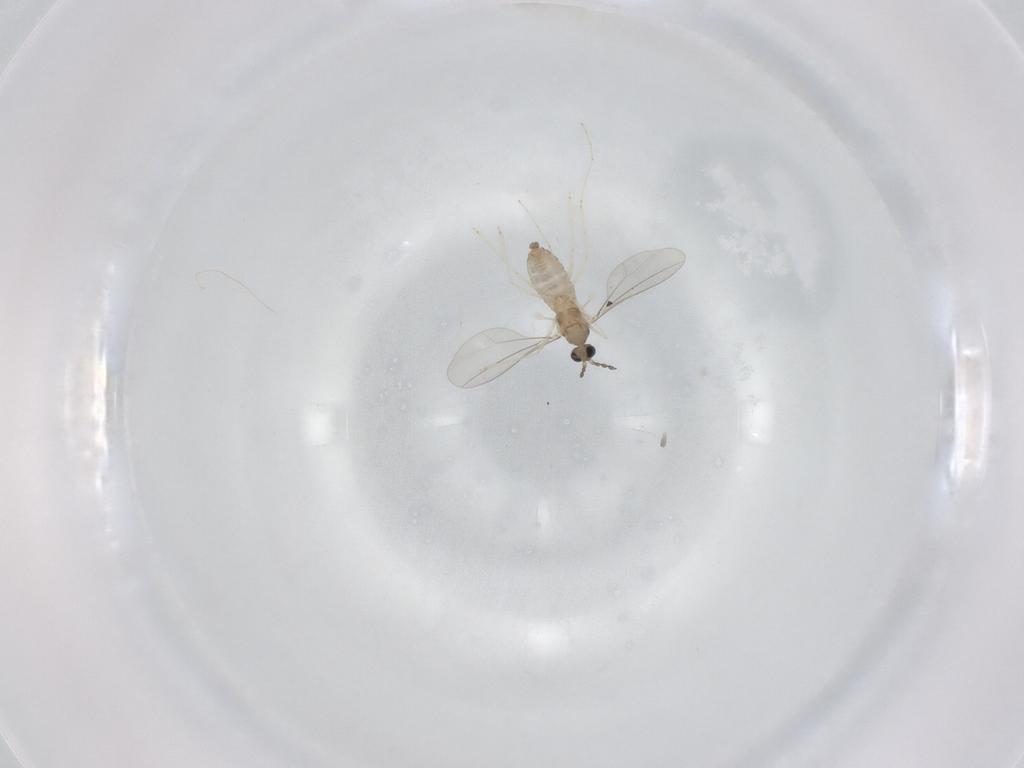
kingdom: Animalia
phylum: Arthropoda
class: Insecta
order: Diptera
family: Cecidomyiidae
